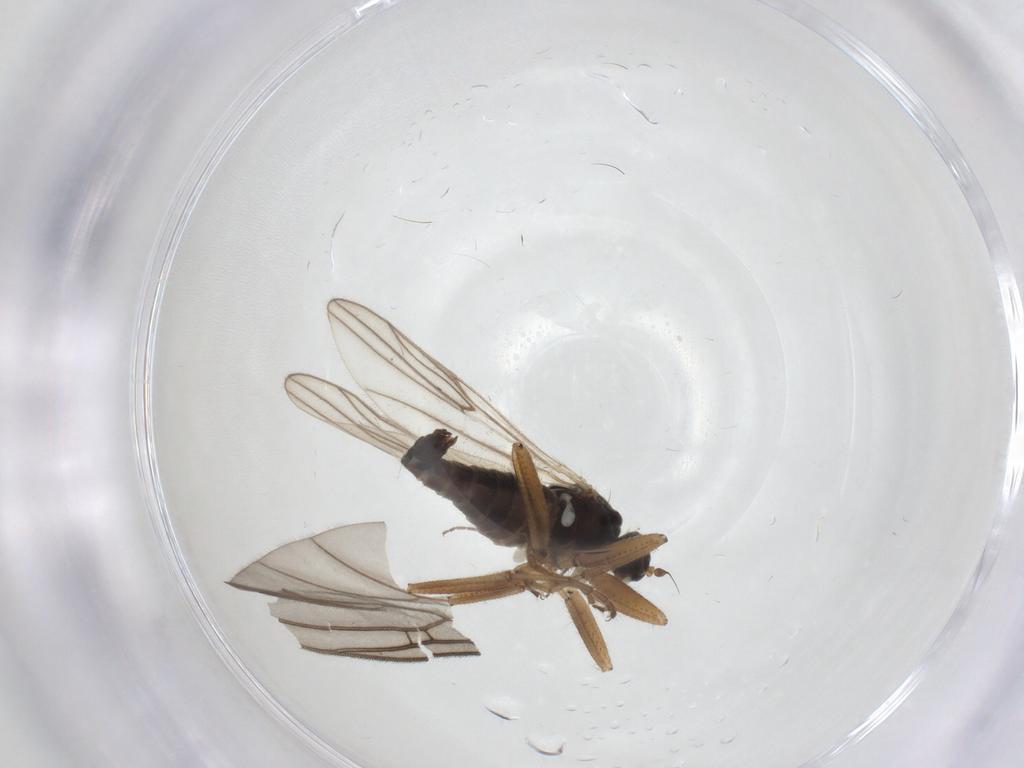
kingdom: Animalia
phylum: Arthropoda
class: Insecta
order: Diptera
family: Hybotidae
